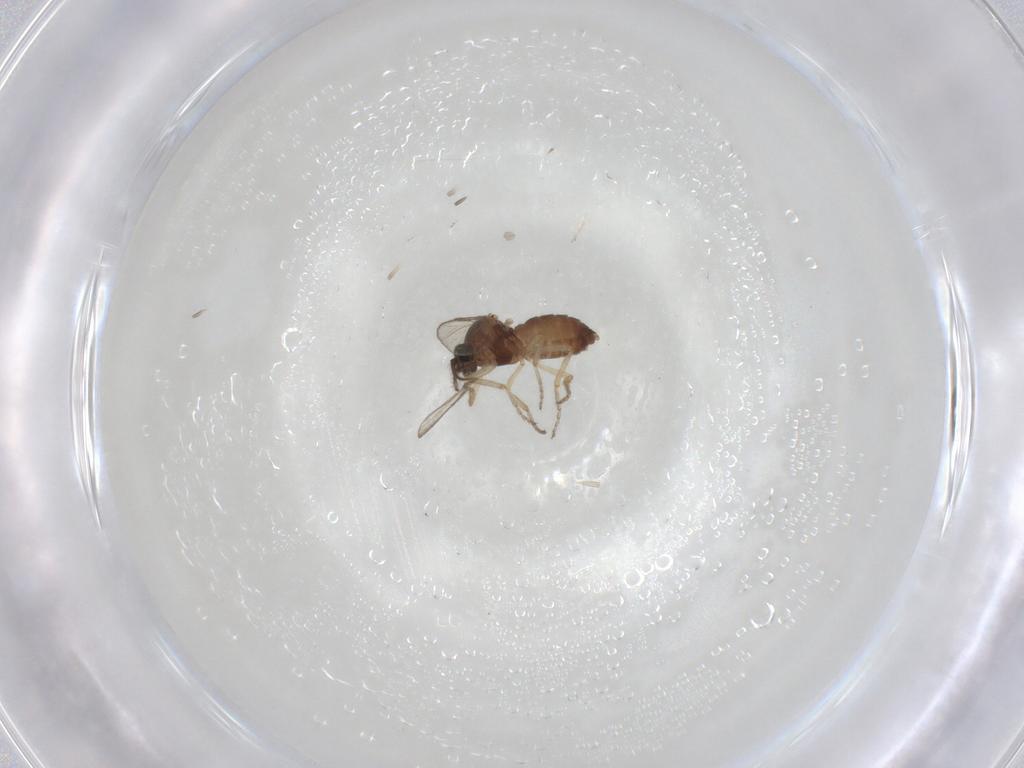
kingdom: Animalia
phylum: Arthropoda
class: Insecta
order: Diptera
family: Ceratopogonidae
